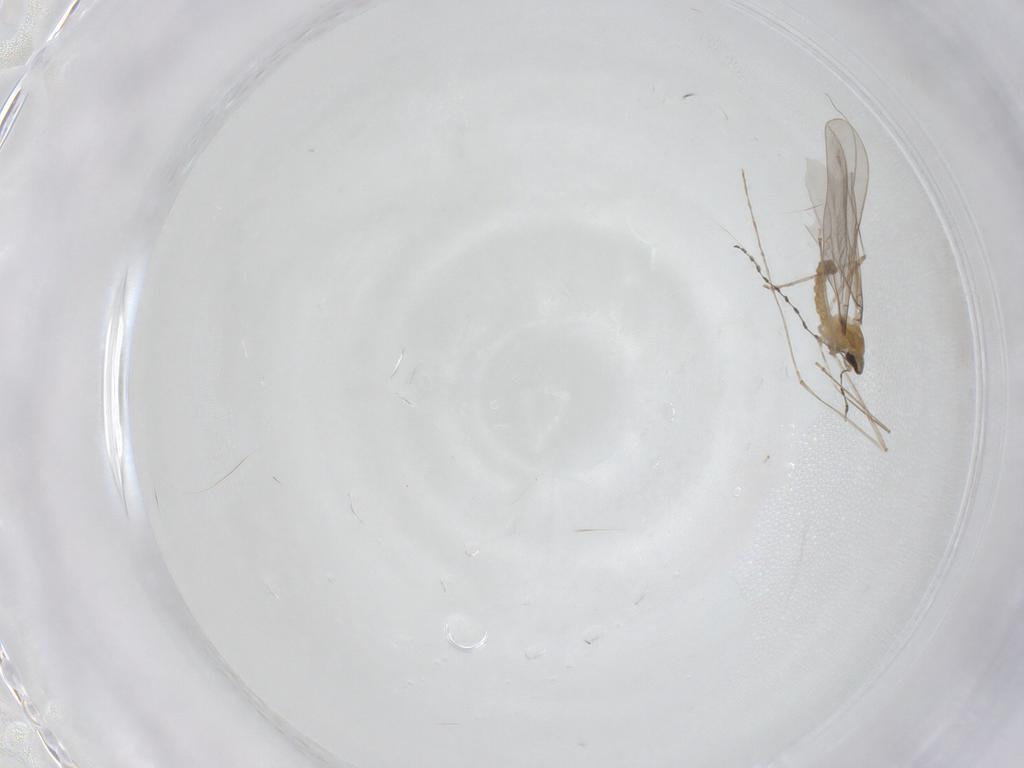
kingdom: Animalia
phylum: Arthropoda
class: Insecta
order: Diptera
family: Cecidomyiidae
